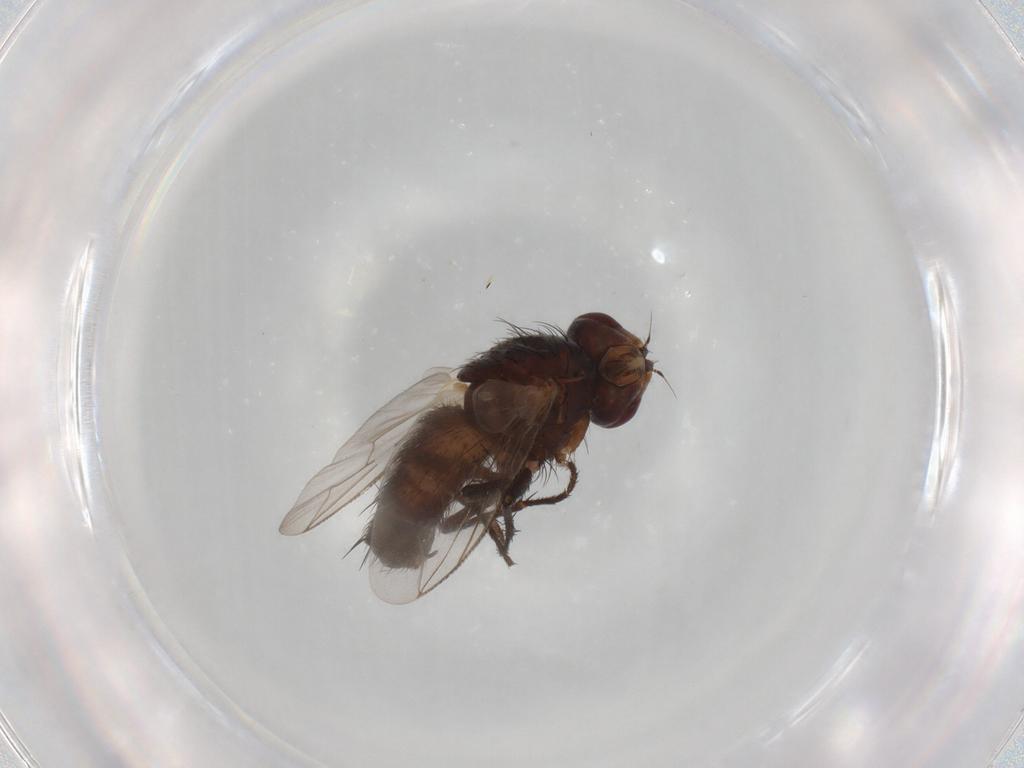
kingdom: Animalia
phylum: Arthropoda
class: Insecta
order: Diptera
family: Sarcophagidae
